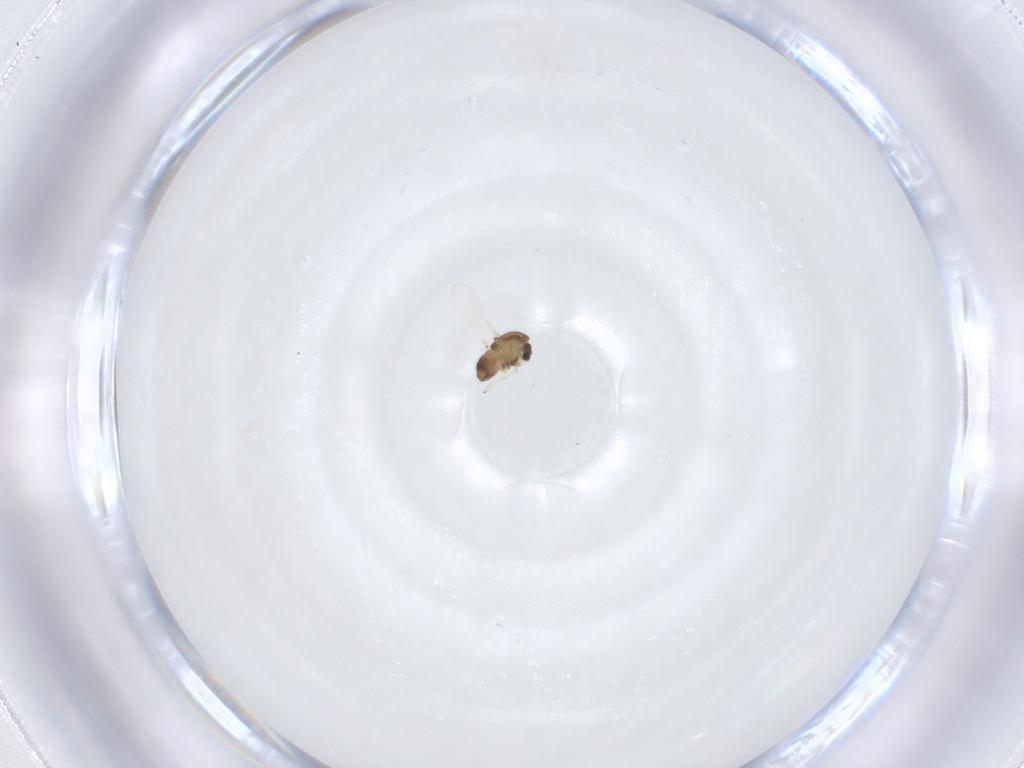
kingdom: Animalia
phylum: Arthropoda
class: Insecta
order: Diptera
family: Chironomidae
